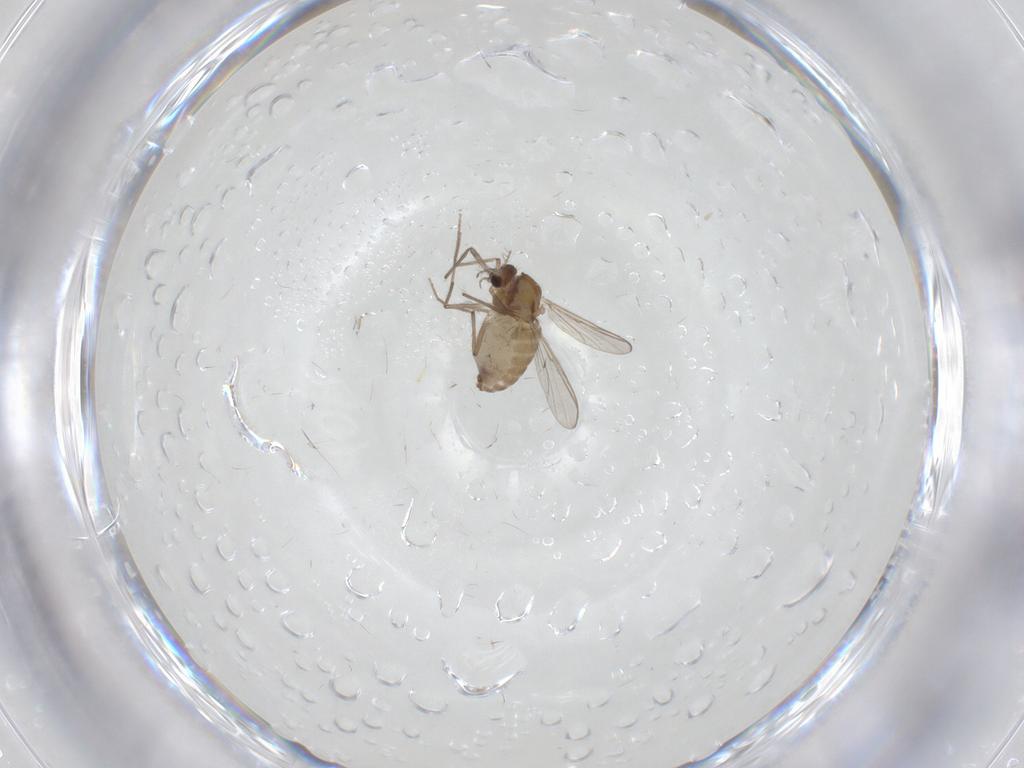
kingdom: Animalia
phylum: Arthropoda
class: Insecta
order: Diptera
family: Chironomidae
